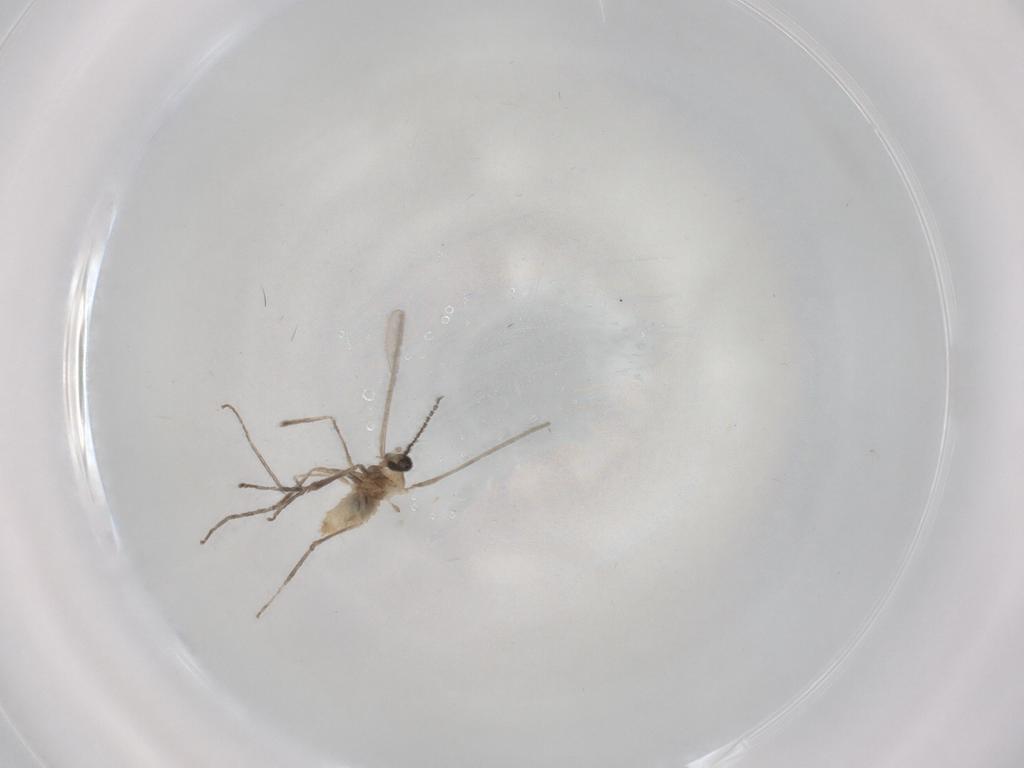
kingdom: Animalia
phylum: Arthropoda
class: Insecta
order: Diptera
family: Cecidomyiidae
